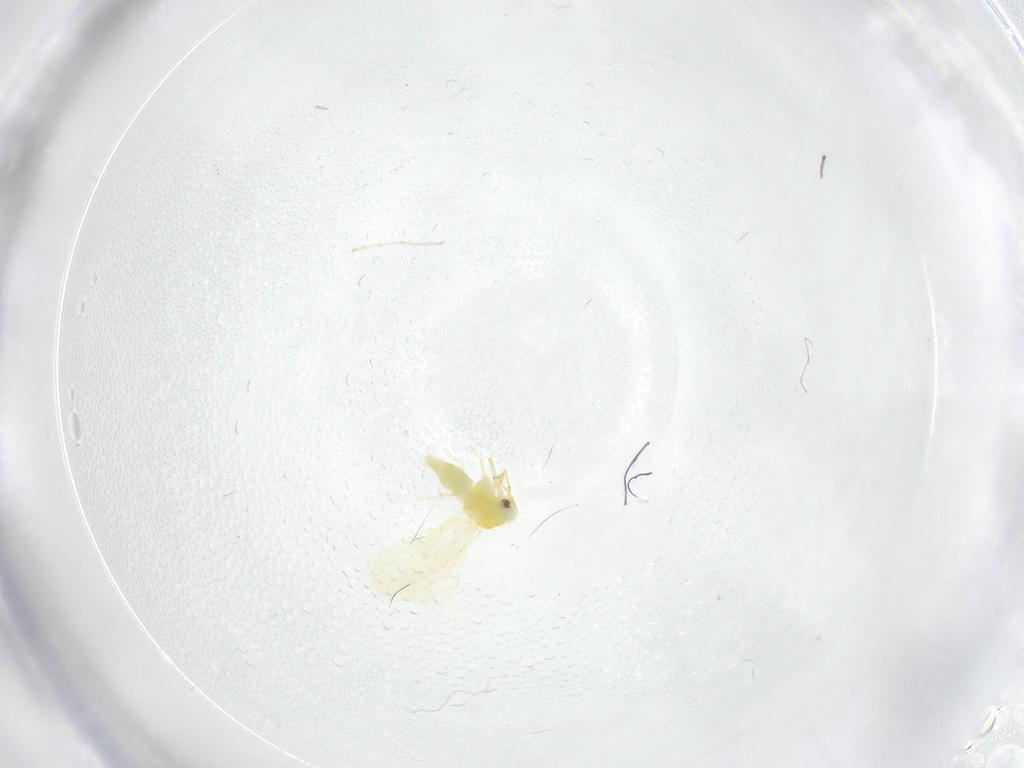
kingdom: Animalia
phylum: Arthropoda
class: Insecta
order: Hemiptera
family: Aleyrodidae
